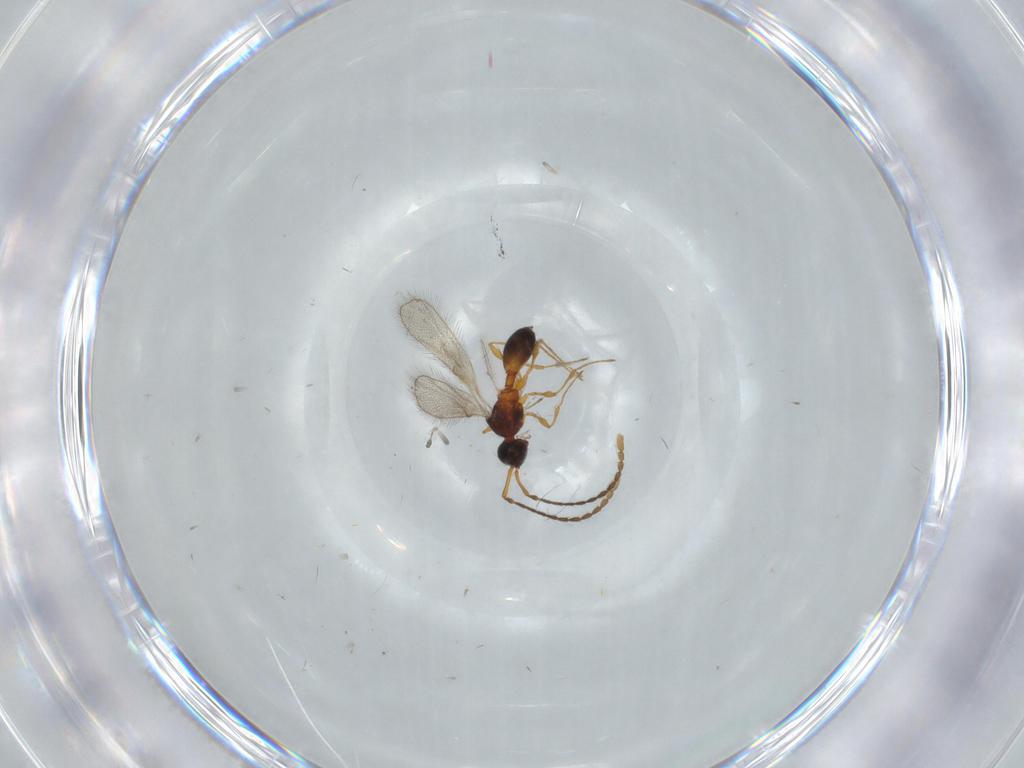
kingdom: Animalia
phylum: Arthropoda
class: Insecta
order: Hymenoptera
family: Diapriidae
